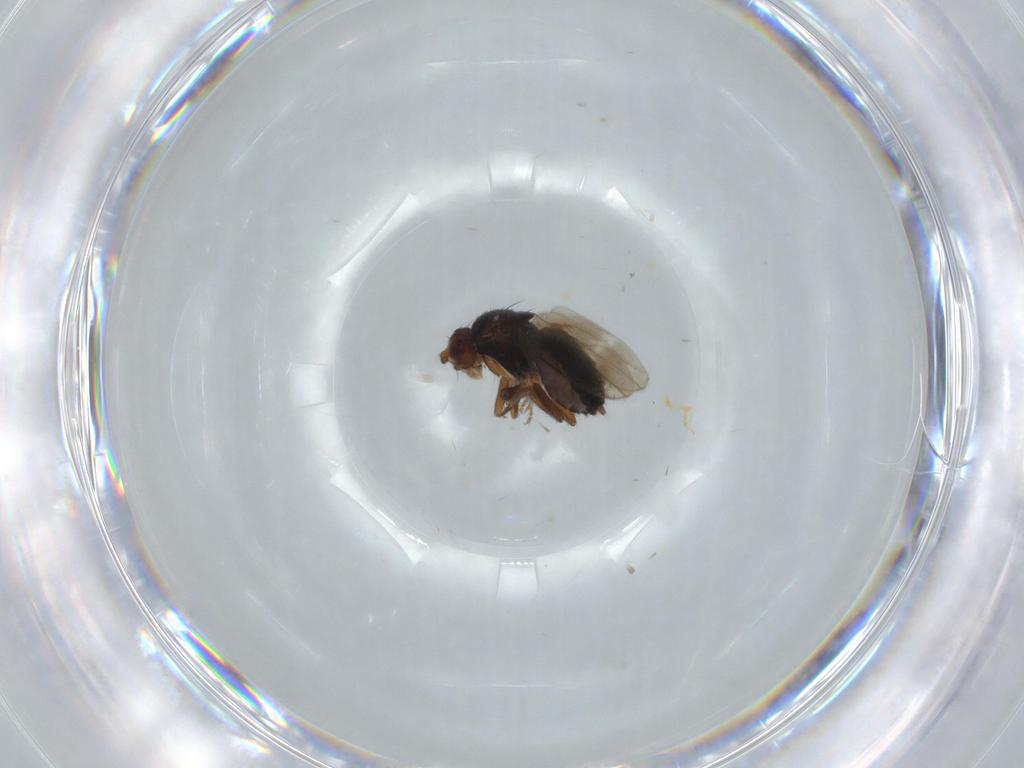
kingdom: Animalia
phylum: Arthropoda
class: Insecta
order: Diptera
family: Sphaeroceridae
